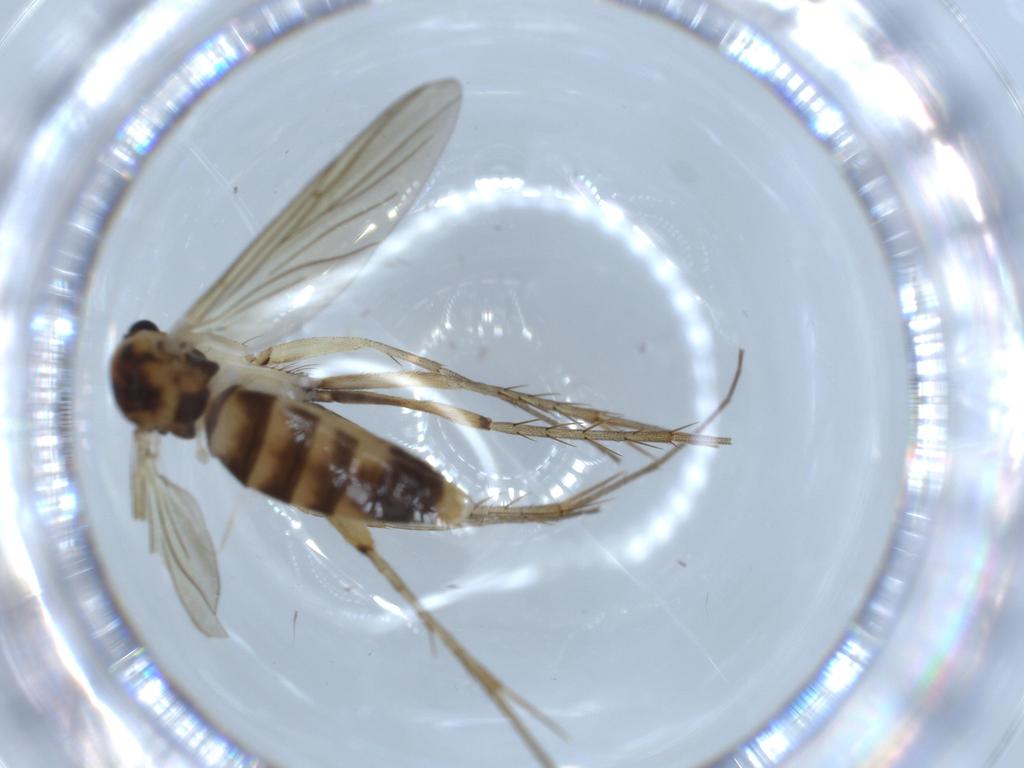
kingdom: Animalia
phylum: Arthropoda
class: Insecta
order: Diptera
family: Mycetophilidae
